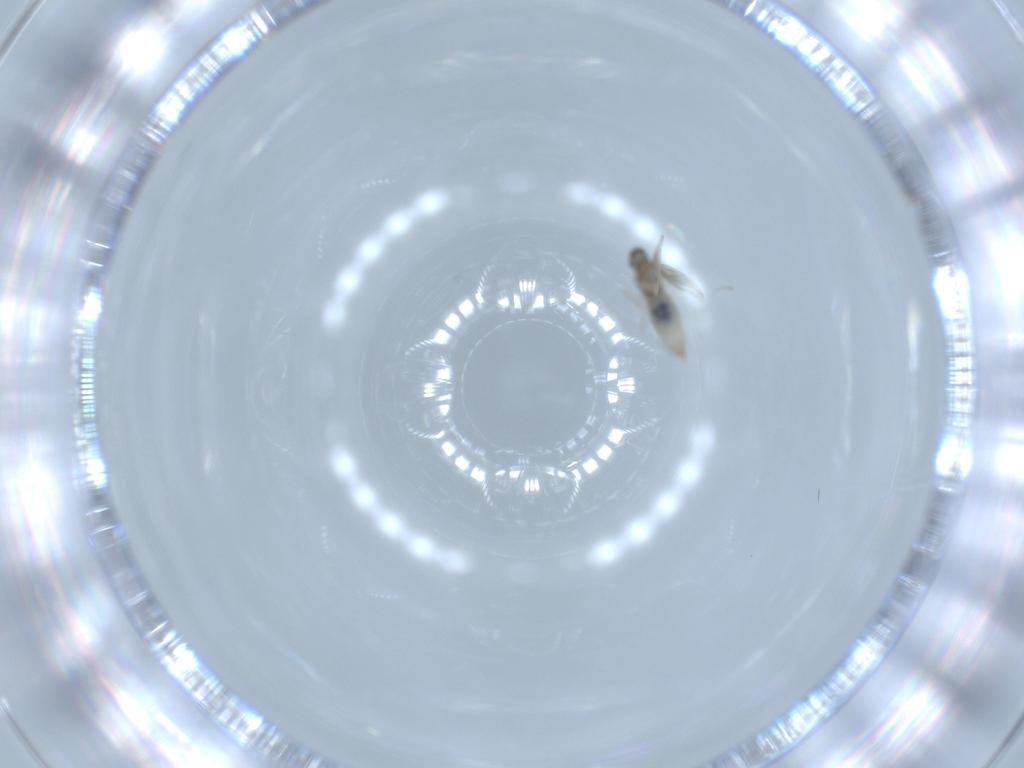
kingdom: Animalia
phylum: Arthropoda
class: Insecta
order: Diptera
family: Cecidomyiidae
